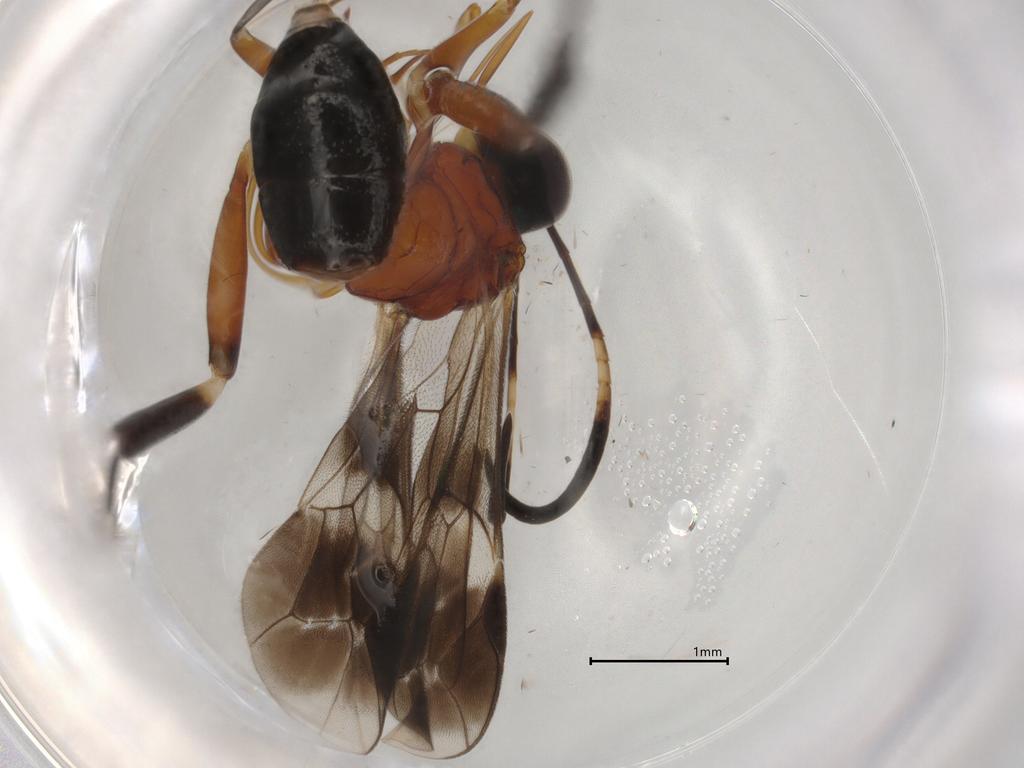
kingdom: Animalia
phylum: Arthropoda
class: Insecta
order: Hymenoptera
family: Ichneumonidae
